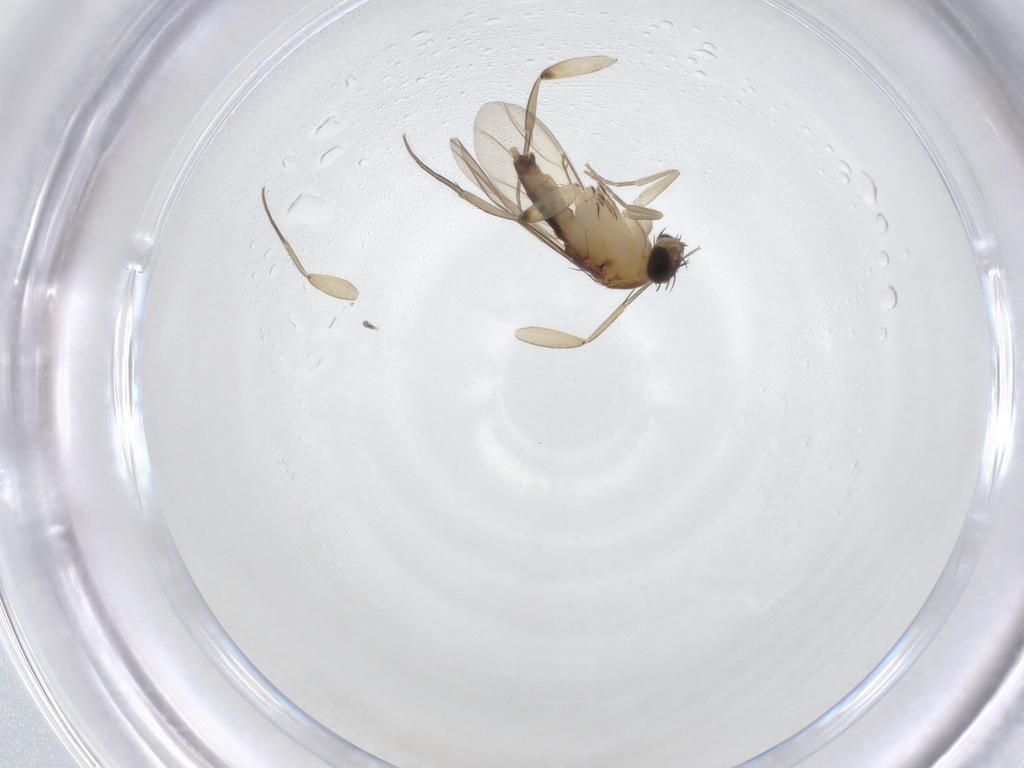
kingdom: Animalia
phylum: Arthropoda
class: Insecta
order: Diptera
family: Phoridae
